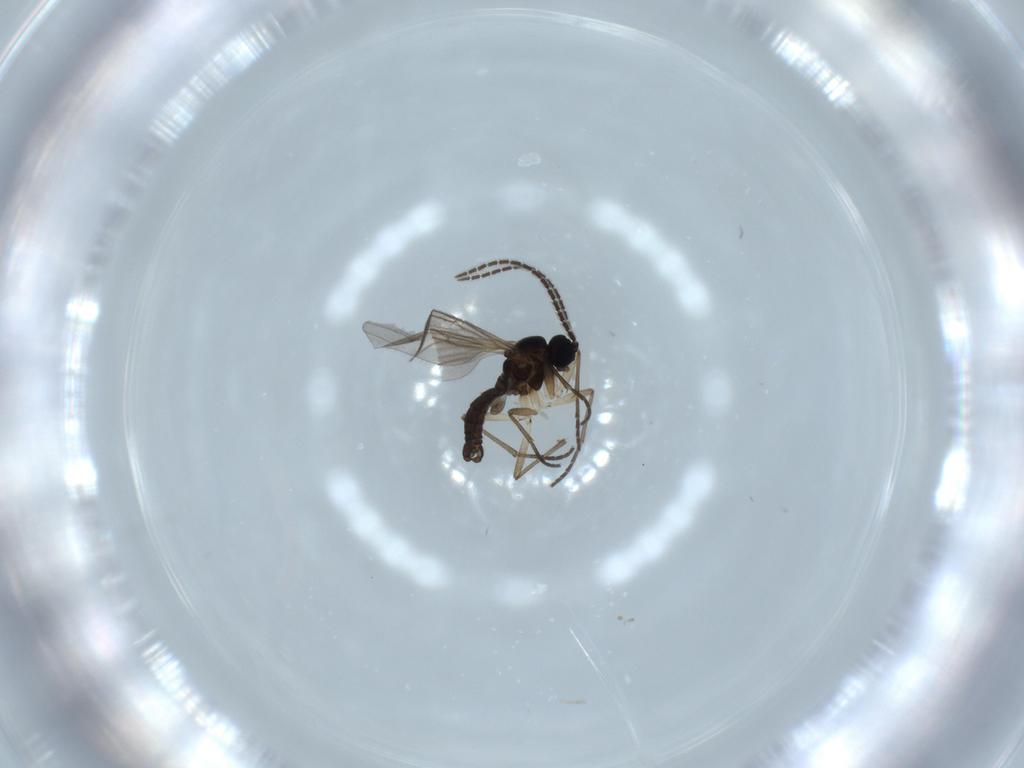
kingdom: Animalia
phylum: Arthropoda
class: Insecta
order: Diptera
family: Sciaridae
